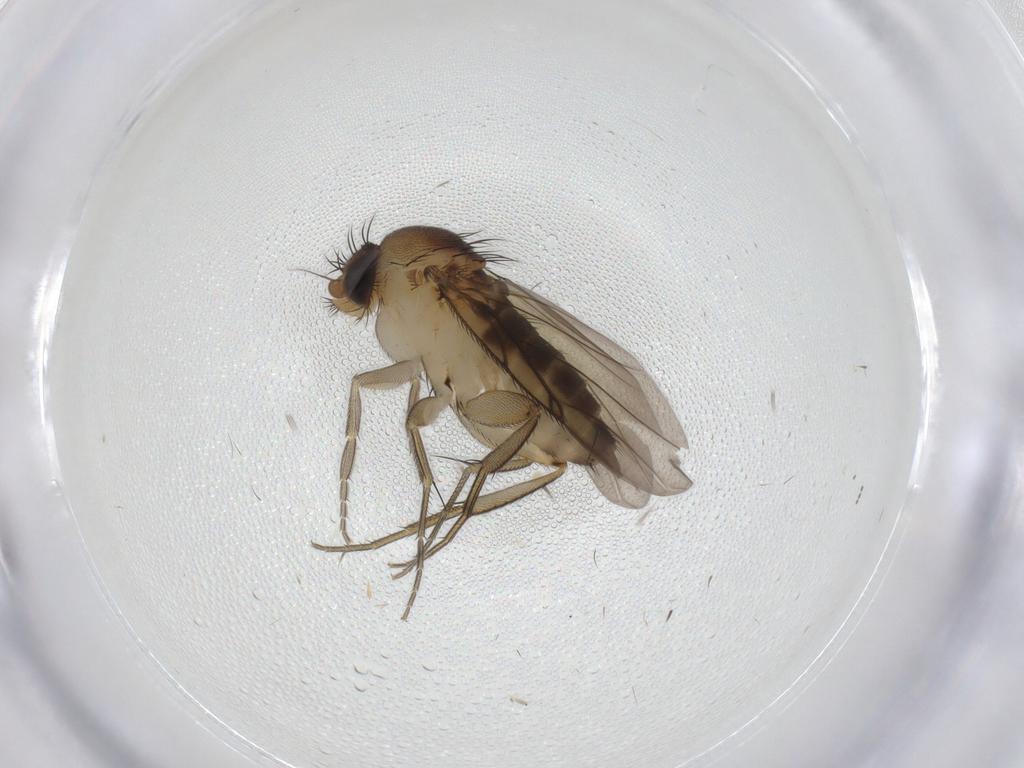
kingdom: Animalia
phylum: Arthropoda
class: Insecta
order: Diptera
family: Phoridae
